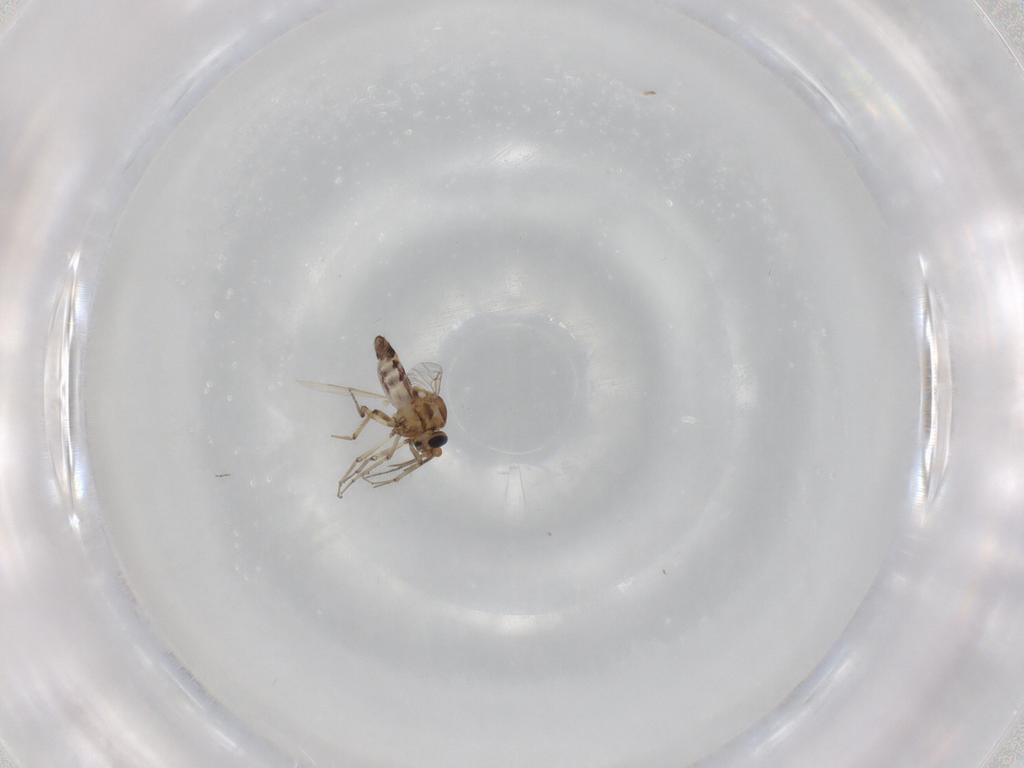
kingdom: Animalia
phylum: Arthropoda
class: Insecta
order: Diptera
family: Ceratopogonidae
